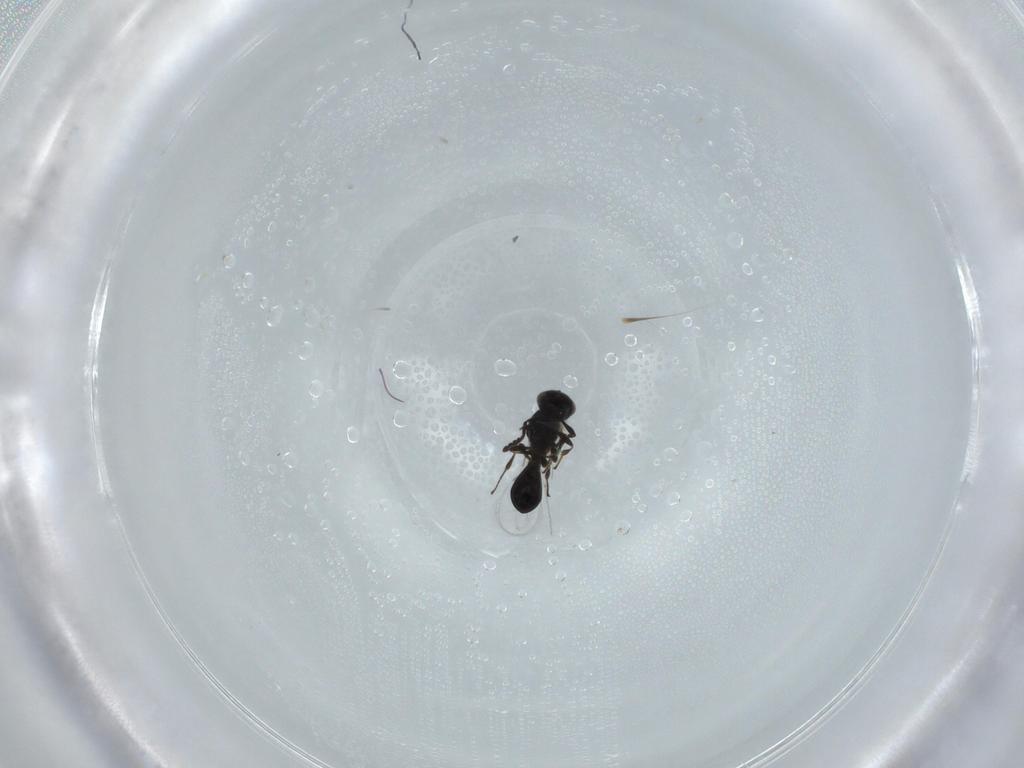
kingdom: Animalia
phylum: Arthropoda
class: Insecta
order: Hymenoptera
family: Platygastridae
